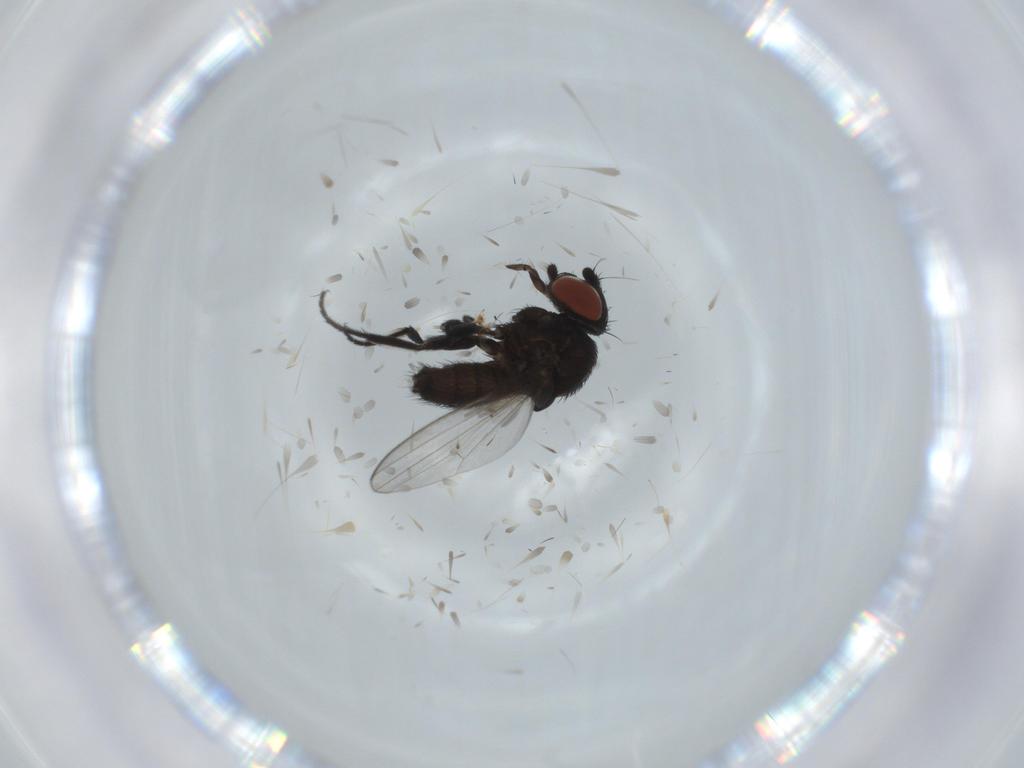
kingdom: Animalia
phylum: Arthropoda
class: Insecta
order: Diptera
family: Milichiidae
